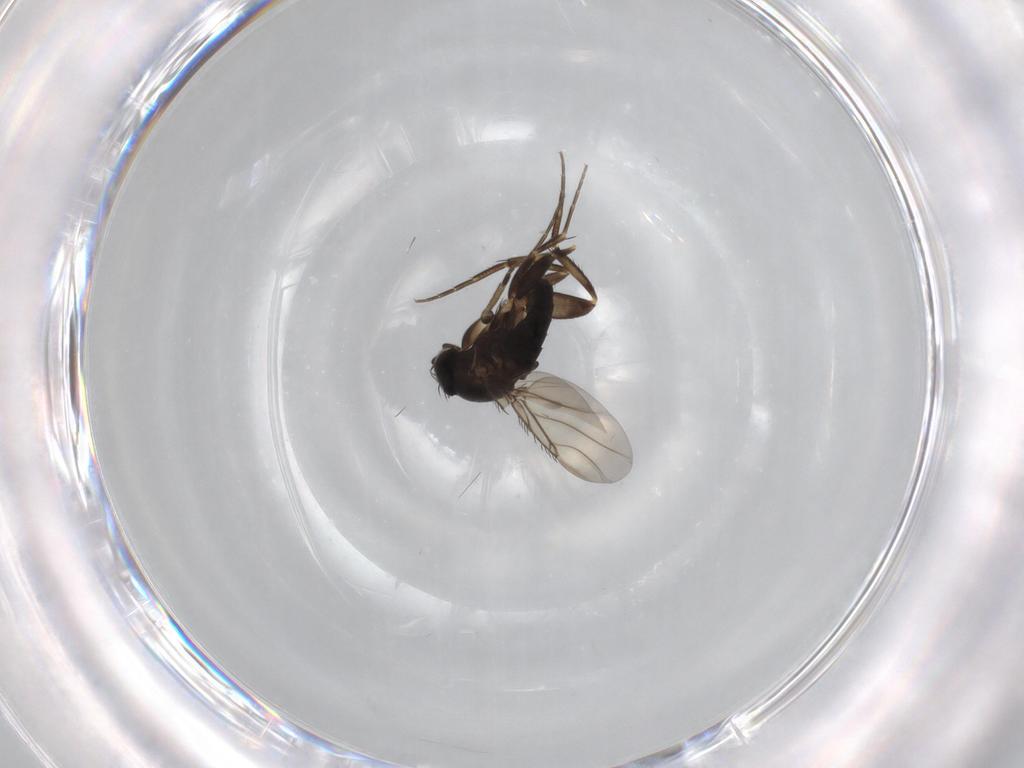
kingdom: Animalia
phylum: Arthropoda
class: Insecta
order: Diptera
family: Phoridae
